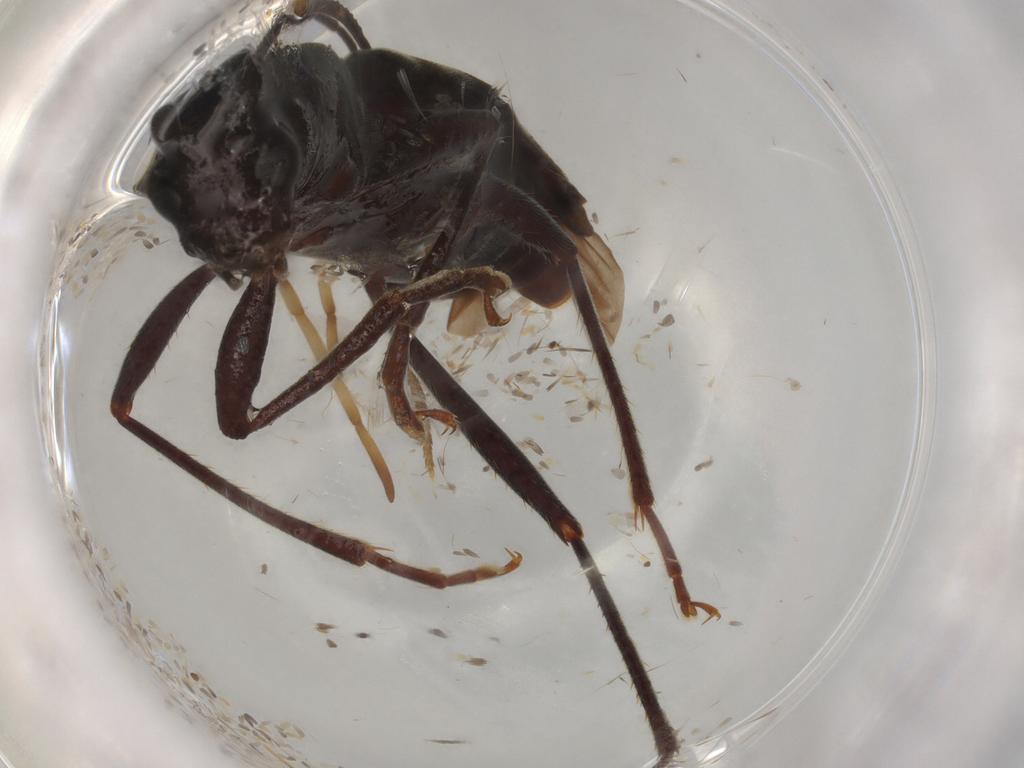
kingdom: Animalia
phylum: Arthropoda
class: Insecta
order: Coleoptera
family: Cerambycidae
